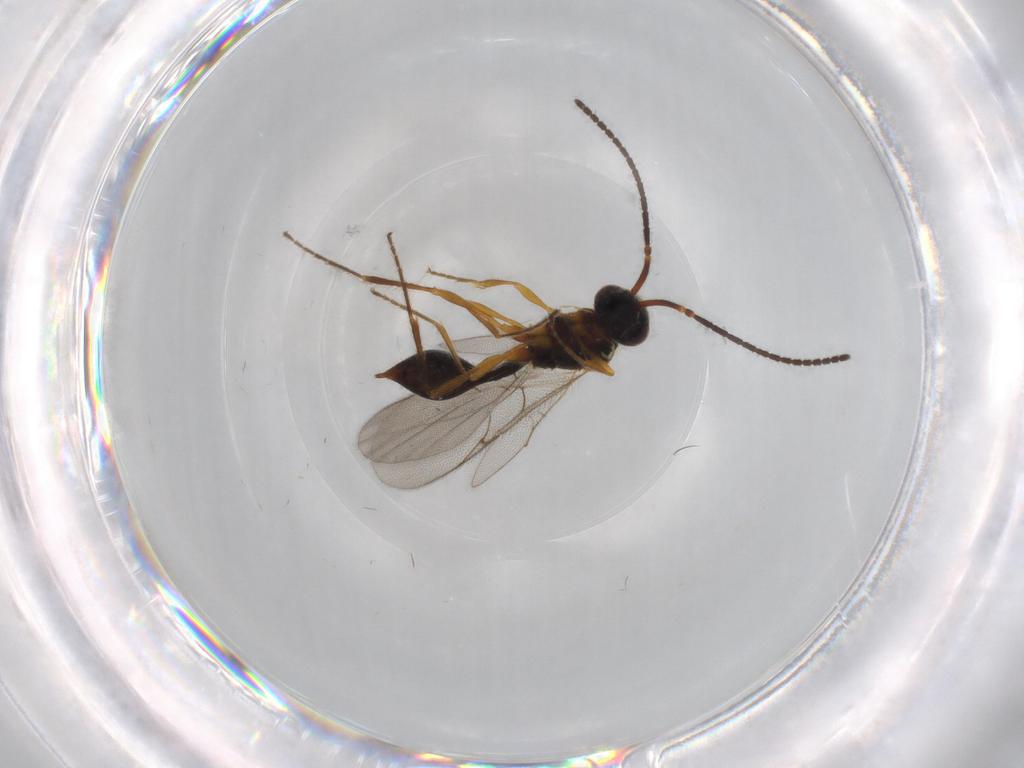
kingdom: Animalia
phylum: Arthropoda
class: Insecta
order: Hymenoptera
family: Diapriidae
